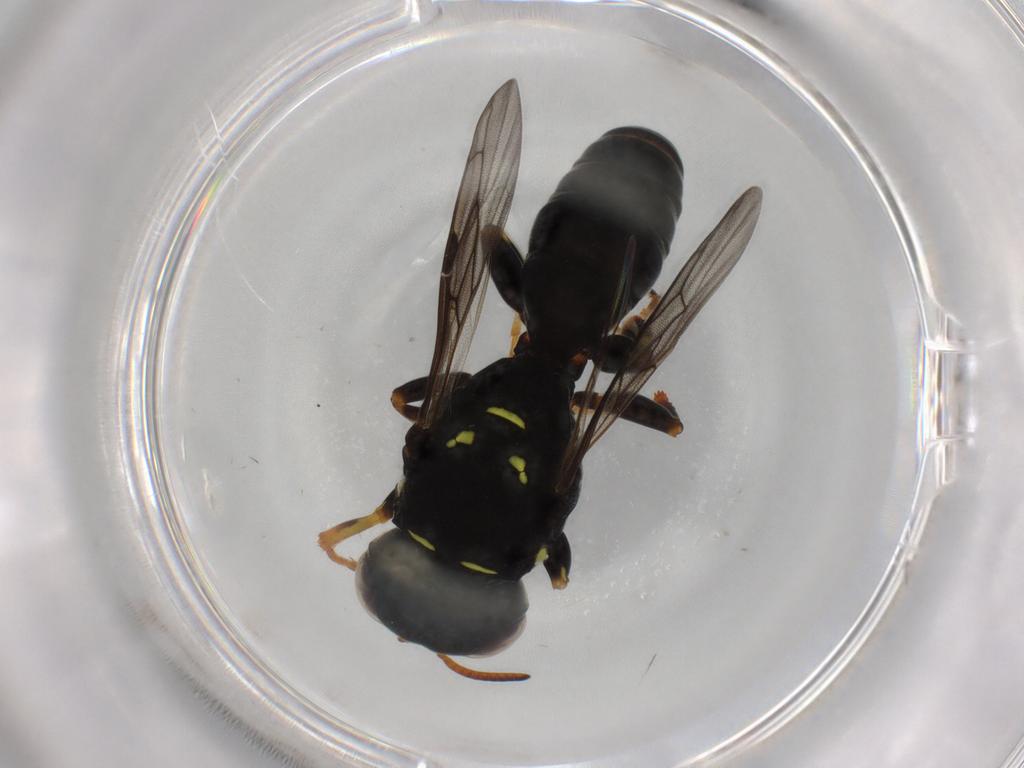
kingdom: Animalia
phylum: Arthropoda
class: Insecta
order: Hymenoptera
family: Crabronidae
